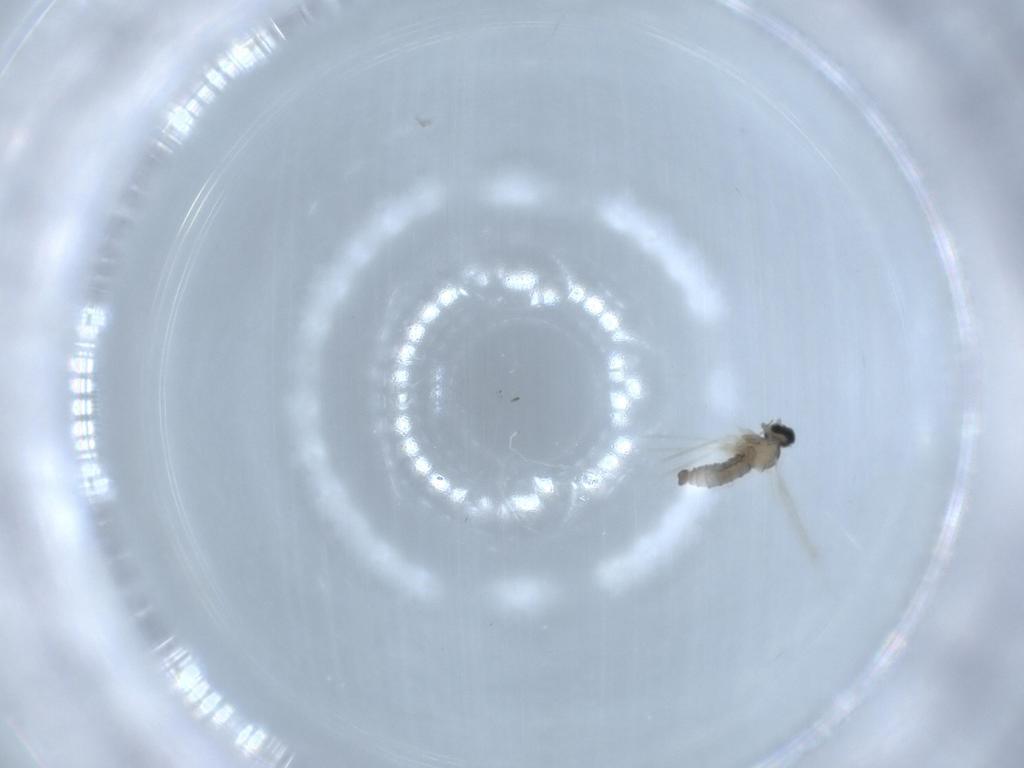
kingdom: Animalia
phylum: Arthropoda
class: Insecta
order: Diptera
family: Cecidomyiidae
